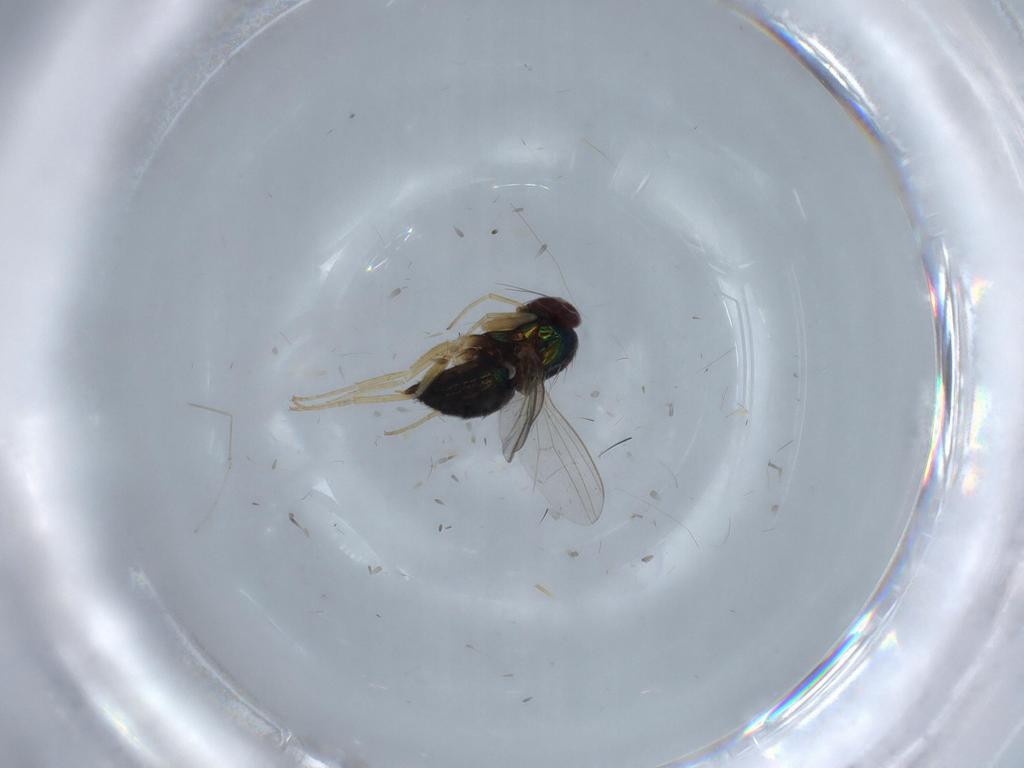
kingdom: Animalia
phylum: Arthropoda
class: Insecta
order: Diptera
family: Dolichopodidae
